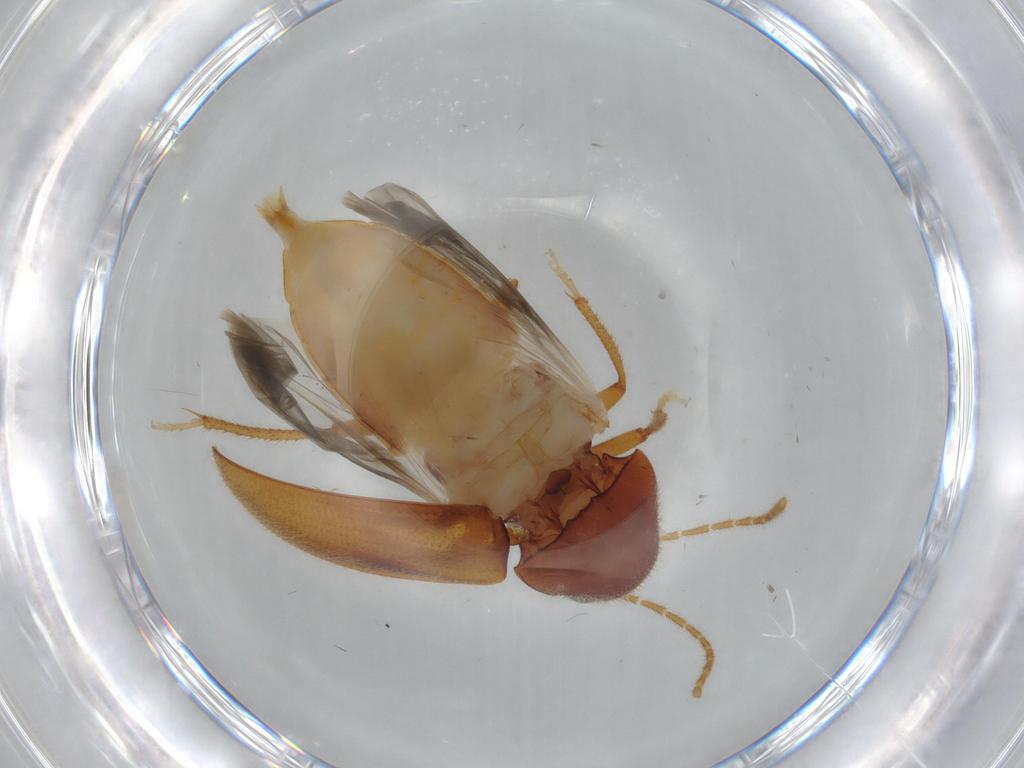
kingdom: Animalia
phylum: Arthropoda
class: Insecta
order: Coleoptera
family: Ptilodactylidae
